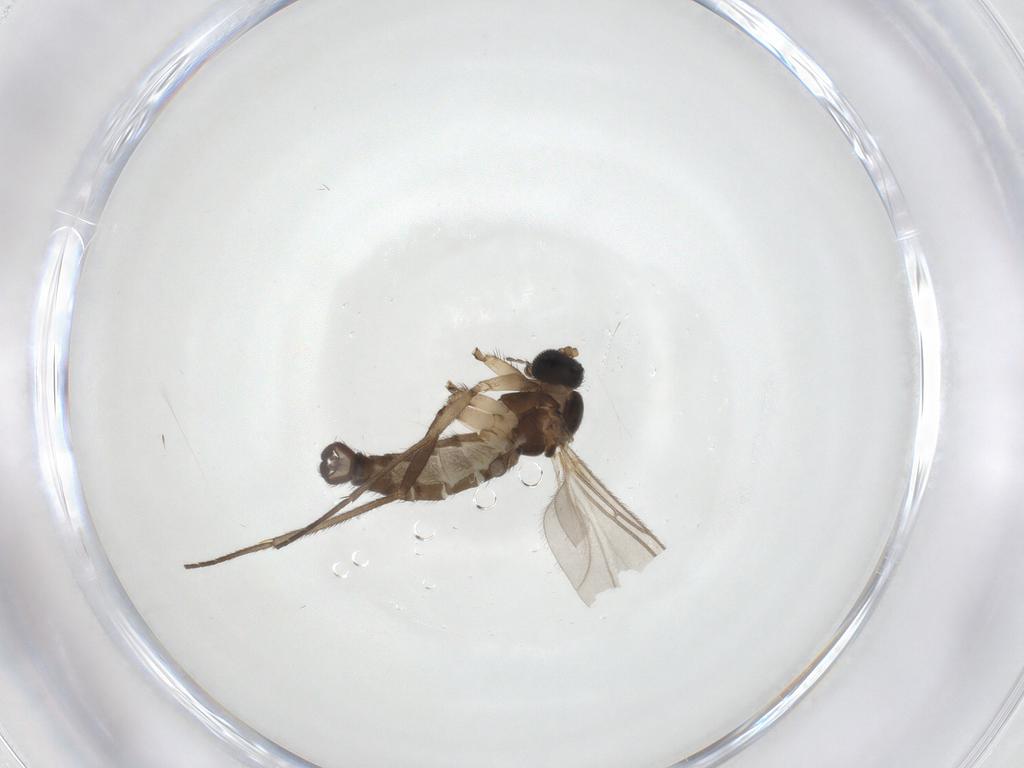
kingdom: Animalia
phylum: Arthropoda
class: Insecta
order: Diptera
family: Sciaridae
